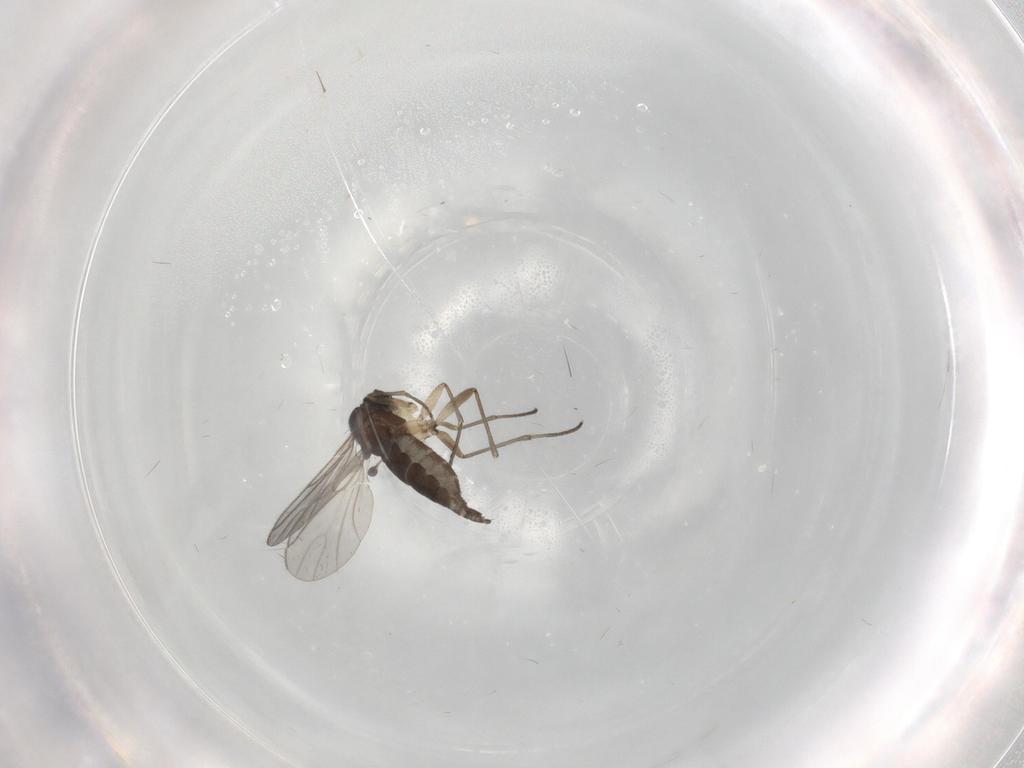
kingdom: Animalia
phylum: Arthropoda
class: Insecta
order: Diptera
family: Sciaridae
